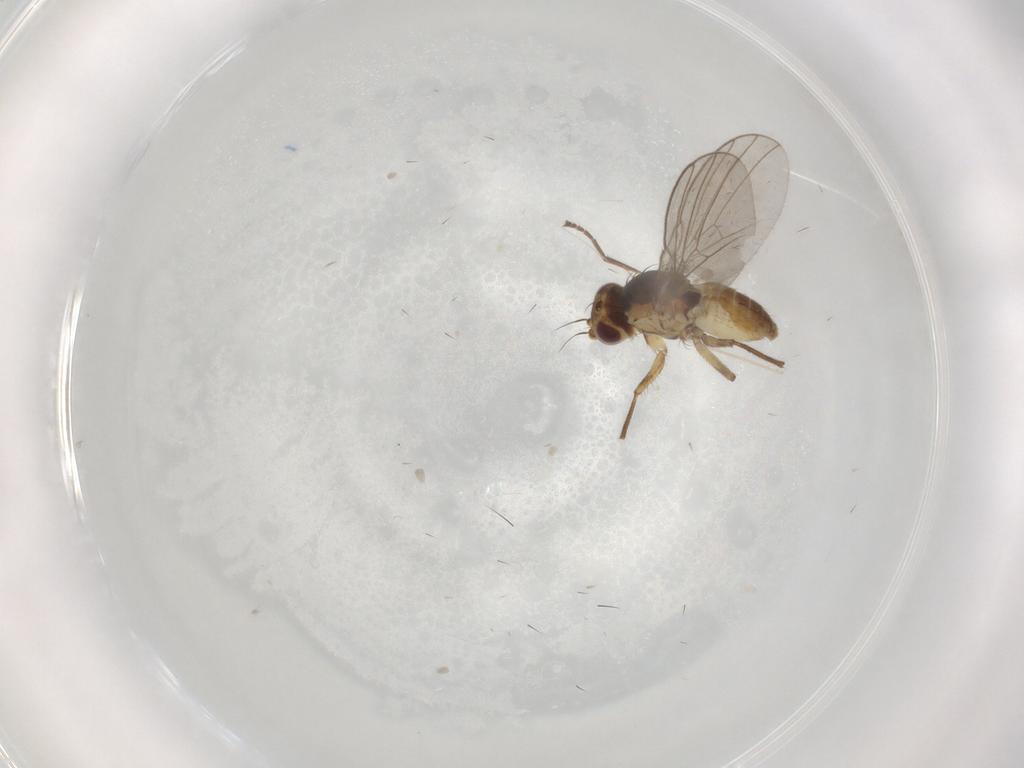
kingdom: Animalia
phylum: Arthropoda
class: Insecta
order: Diptera
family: Agromyzidae
